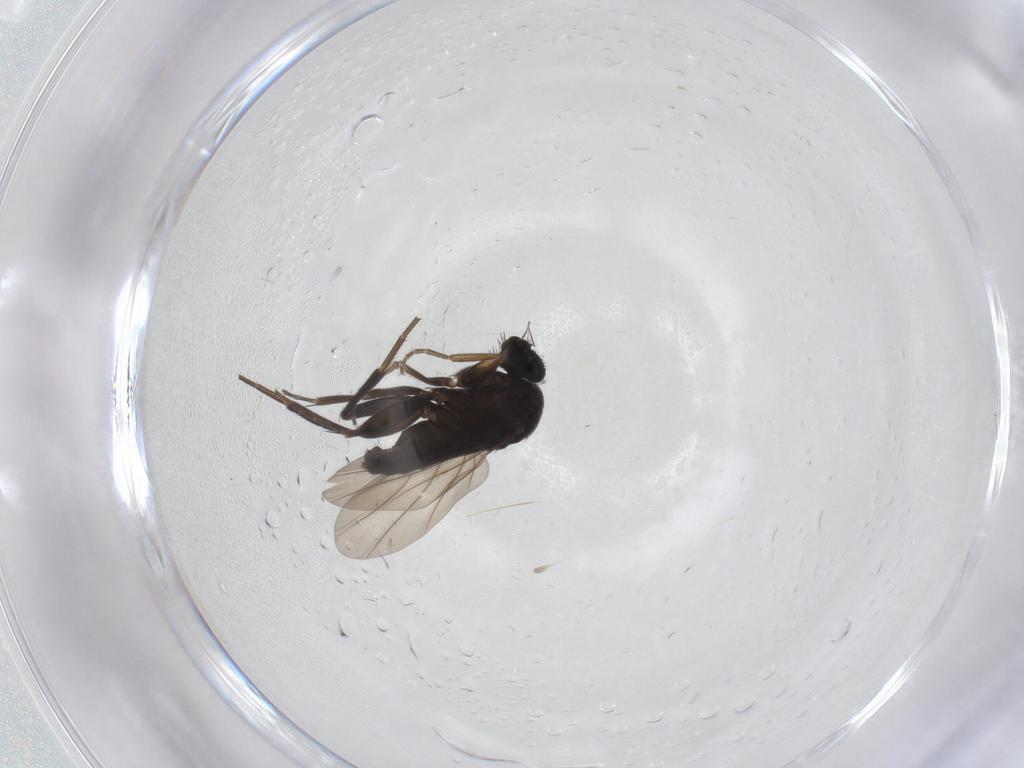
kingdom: Animalia
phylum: Arthropoda
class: Insecta
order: Diptera
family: Phoridae
